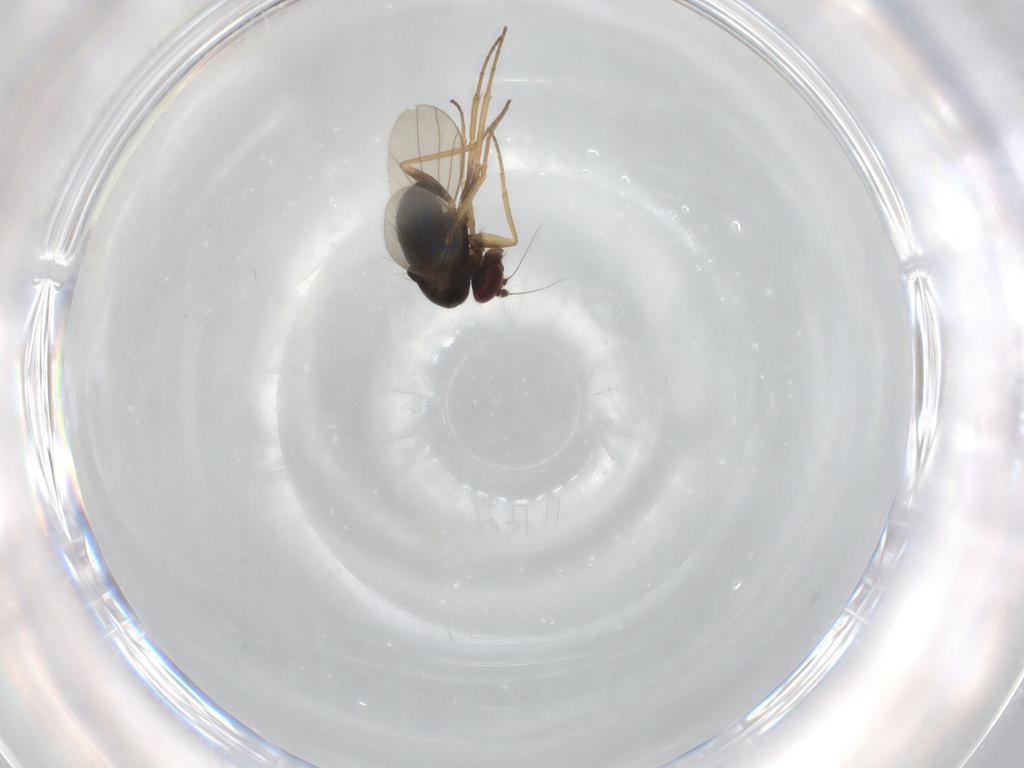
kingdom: Animalia
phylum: Arthropoda
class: Insecta
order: Diptera
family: Dolichopodidae
